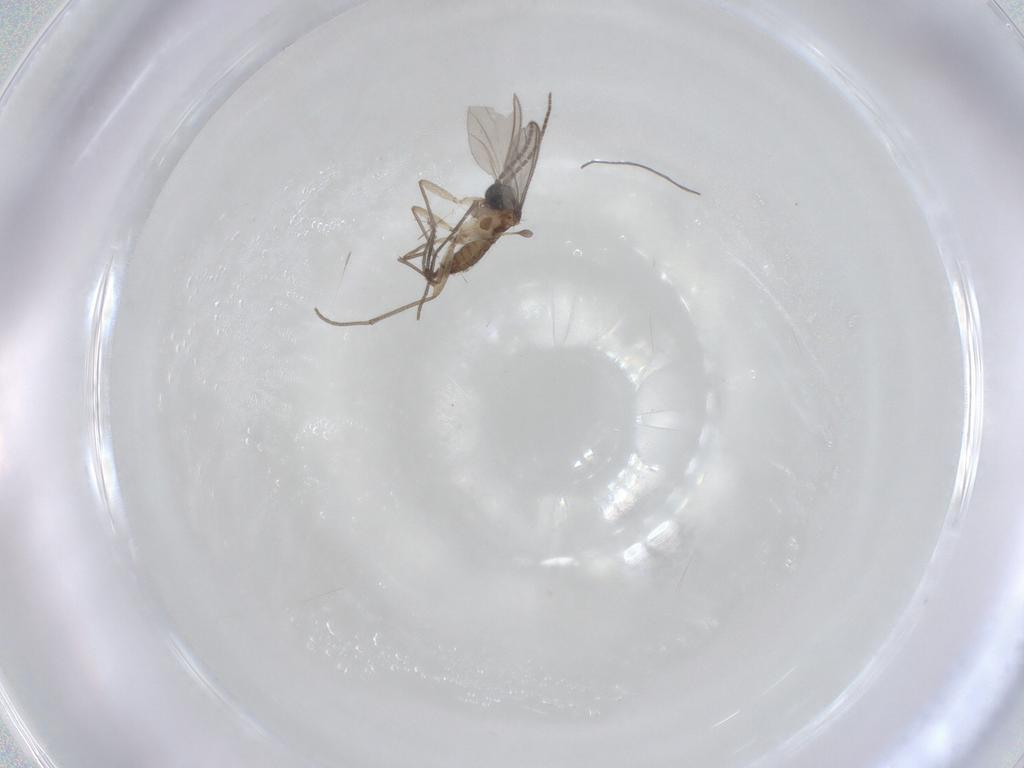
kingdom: Animalia
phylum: Arthropoda
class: Insecta
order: Diptera
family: Sciaridae
